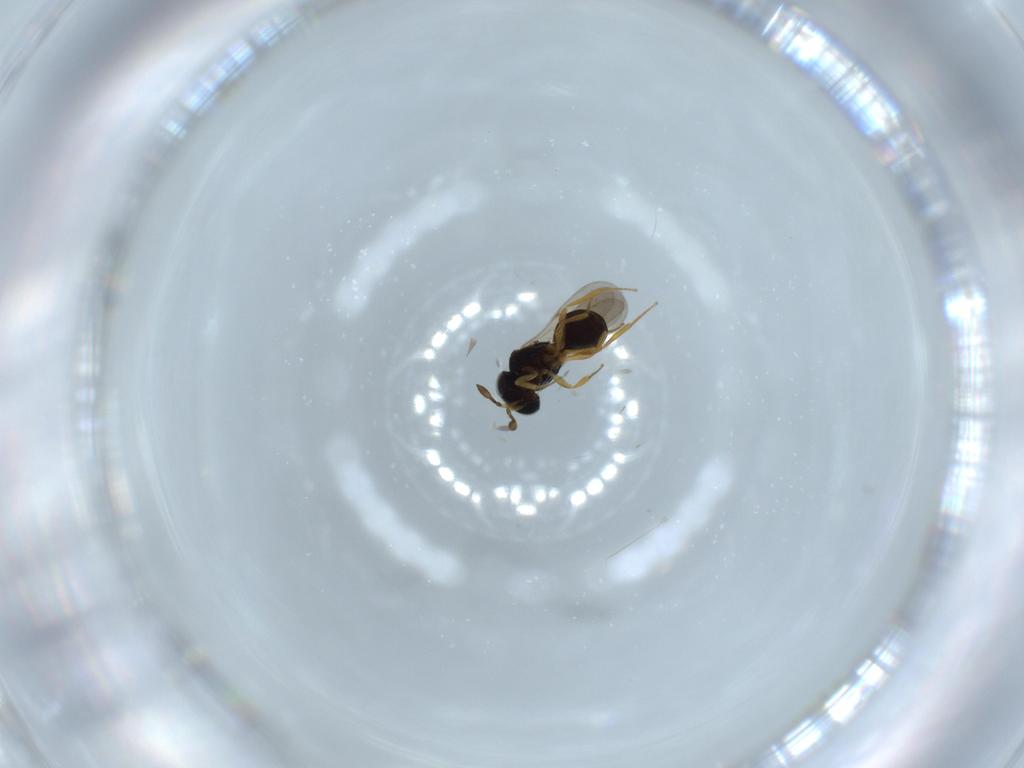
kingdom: Animalia
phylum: Arthropoda
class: Insecta
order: Hymenoptera
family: Scelionidae
